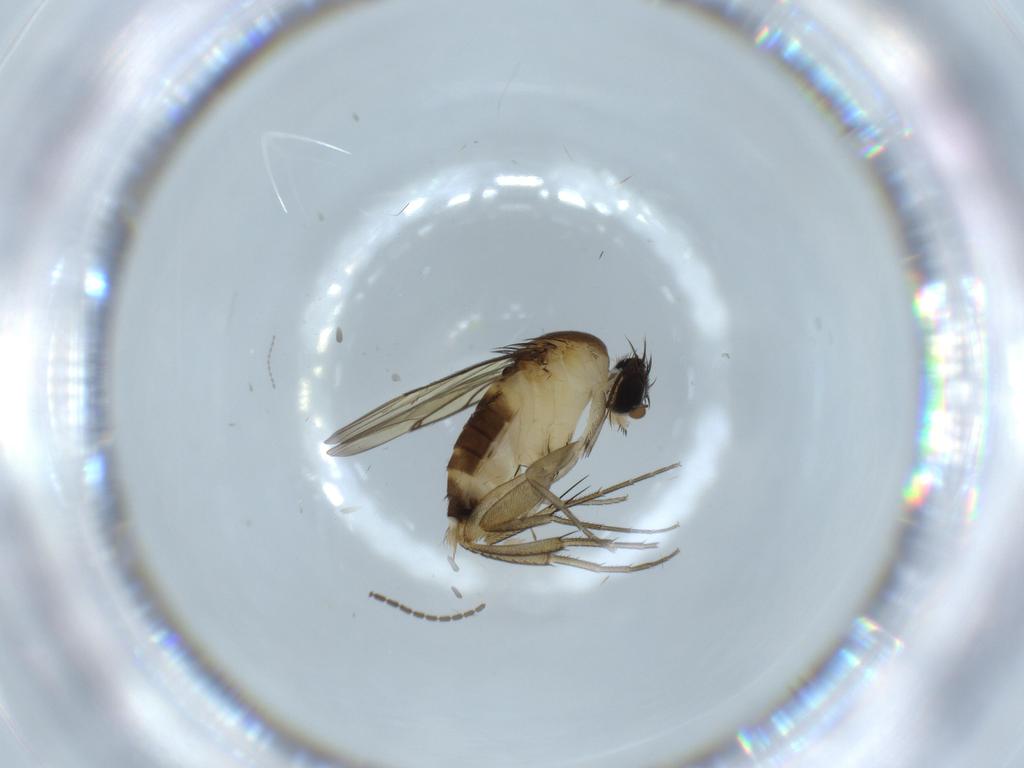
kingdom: Animalia
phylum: Arthropoda
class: Insecta
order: Diptera
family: Sciaridae
